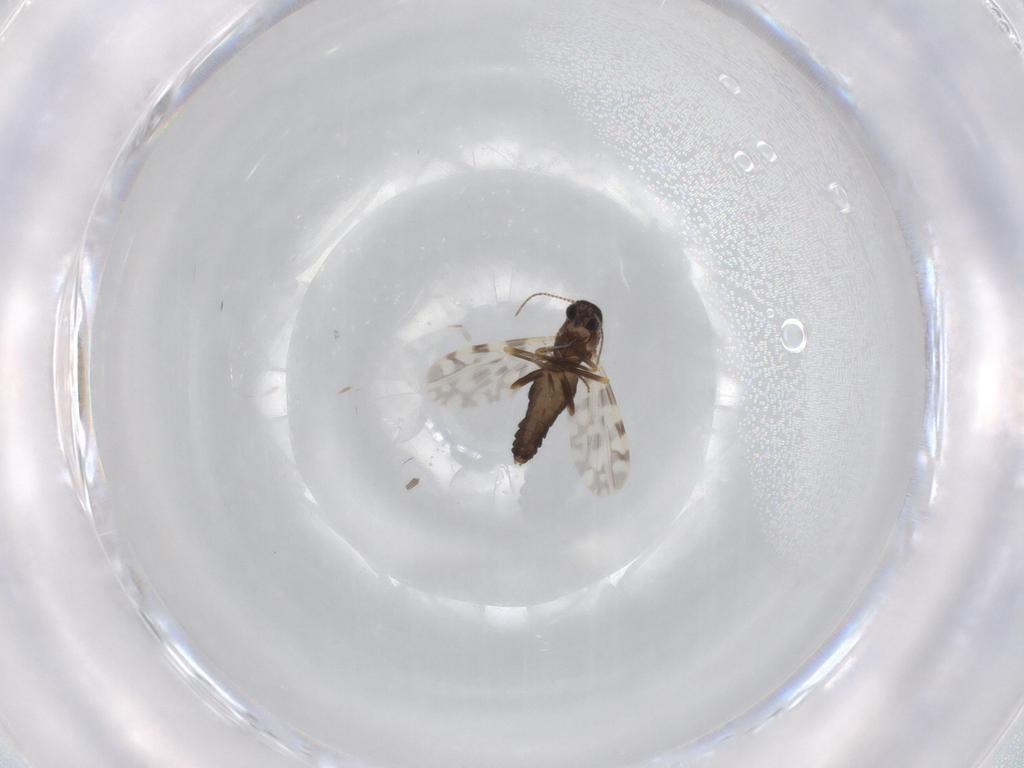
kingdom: Animalia
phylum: Arthropoda
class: Insecta
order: Diptera
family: Ceratopogonidae
